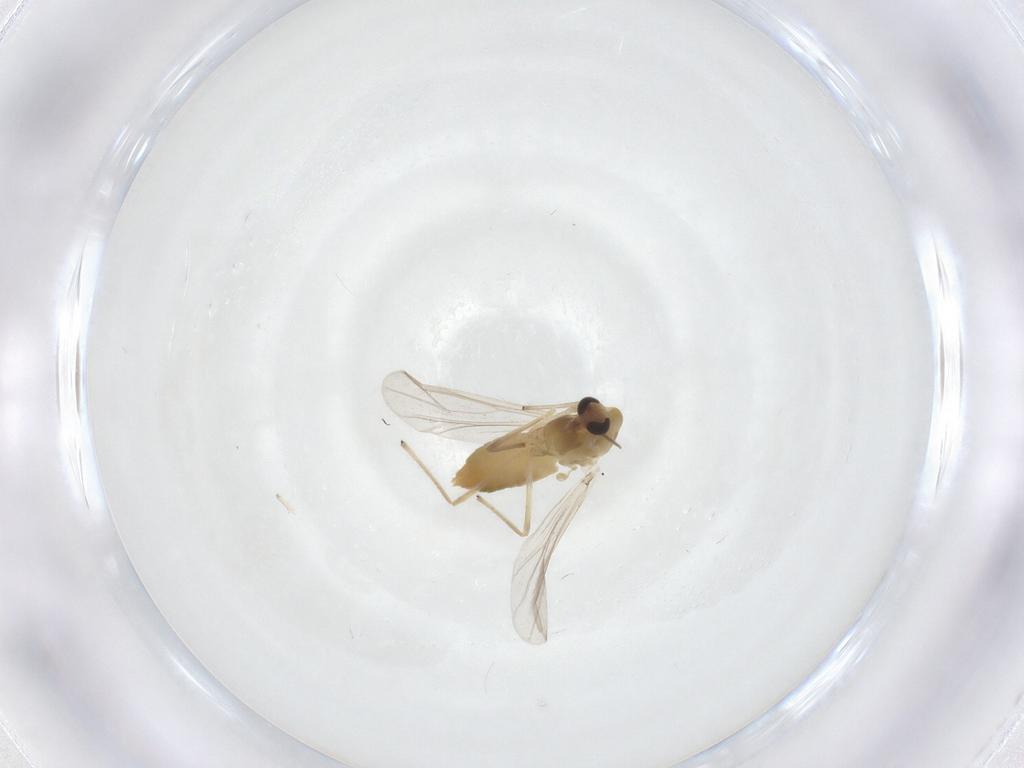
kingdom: Animalia
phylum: Arthropoda
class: Insecta
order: Diptera
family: Chironomidae
